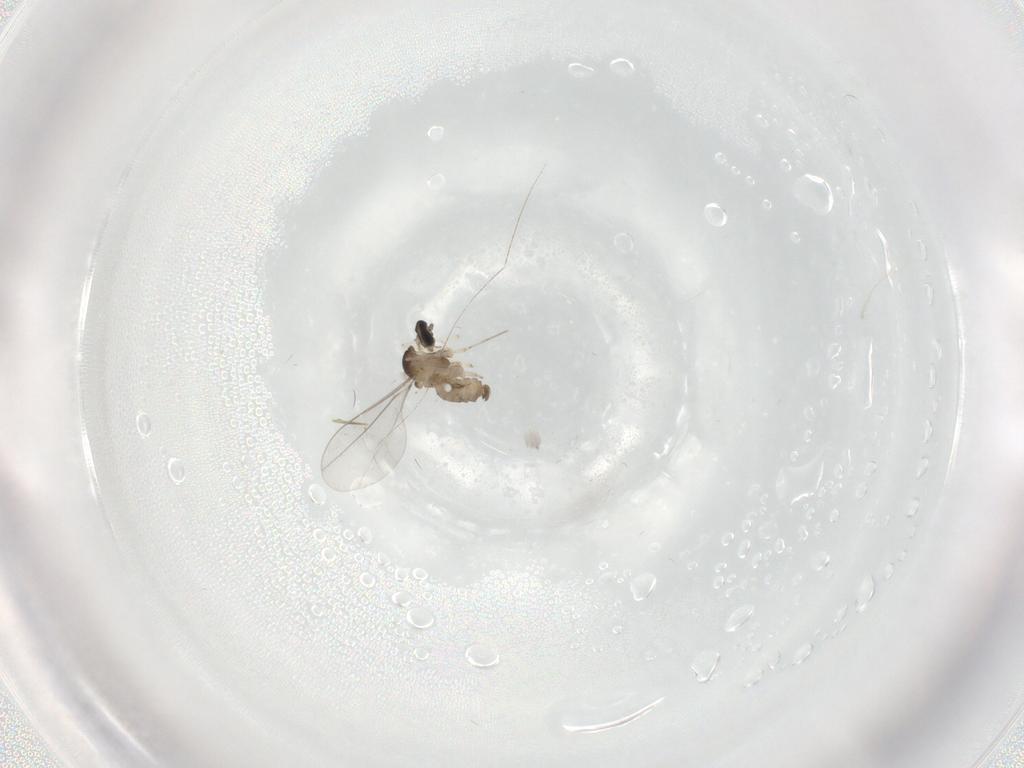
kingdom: Animalia
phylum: Arthropoda
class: Insecta
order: Diptera
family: Cecidomyiidae
